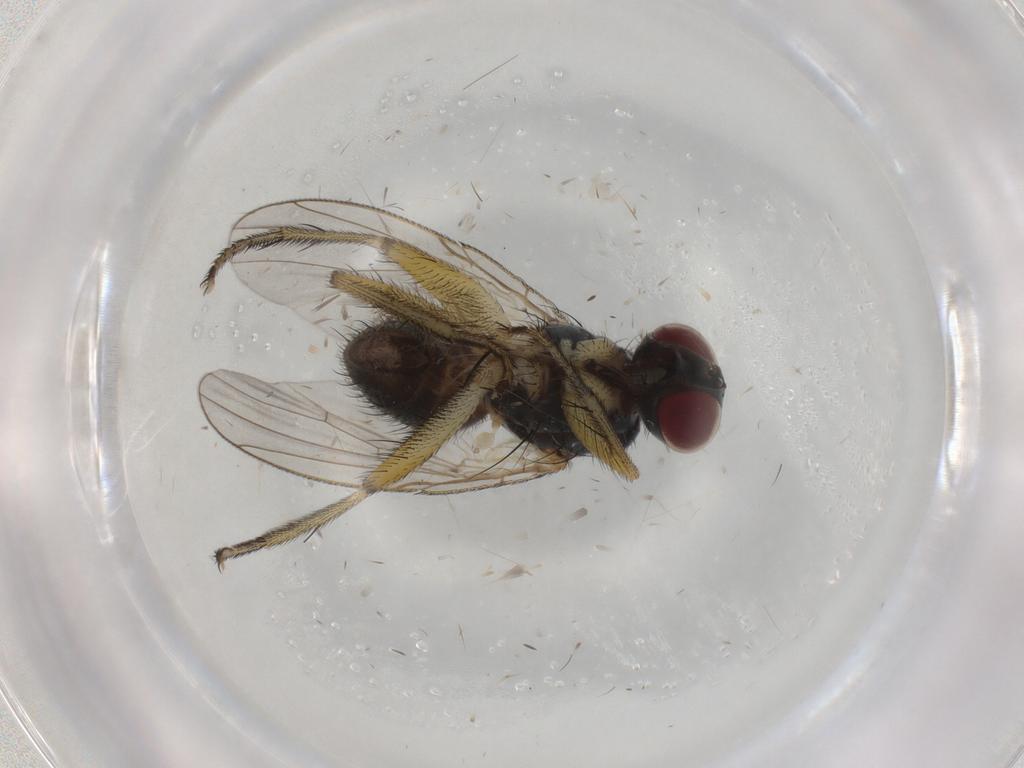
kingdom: Animalia
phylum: Arthropoda
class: Insecta
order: Diptera
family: Muscidae
